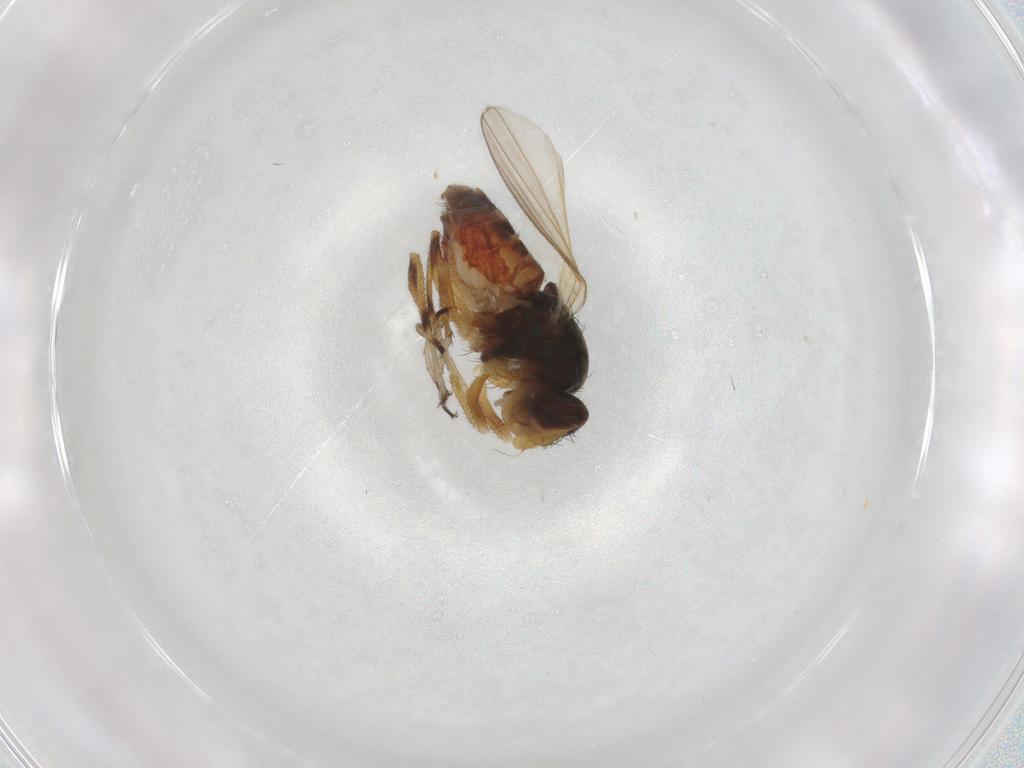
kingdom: Animalia
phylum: Arthropoda
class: Insecta
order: Diptera
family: Canacidae
